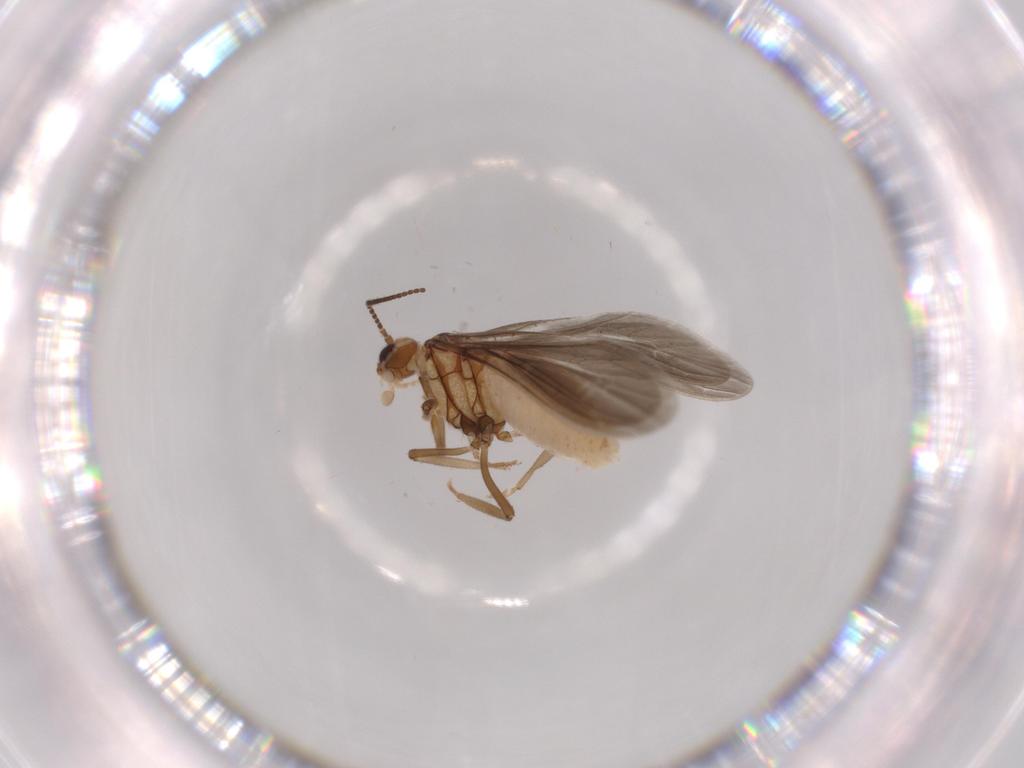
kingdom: Animalia
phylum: Arthropoda
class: Insecta
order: Neuroptera
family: Coniopterygidae
